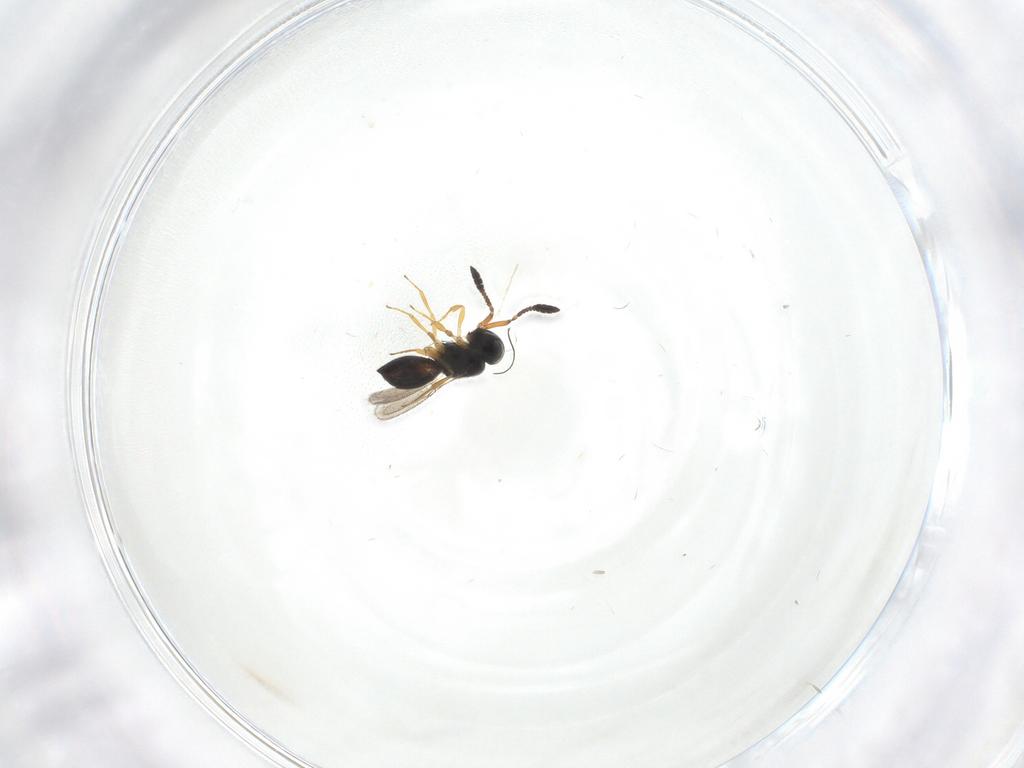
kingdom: Animalia
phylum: Arthropoda
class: Insecta
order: Hymenoptera
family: Scelionidae
